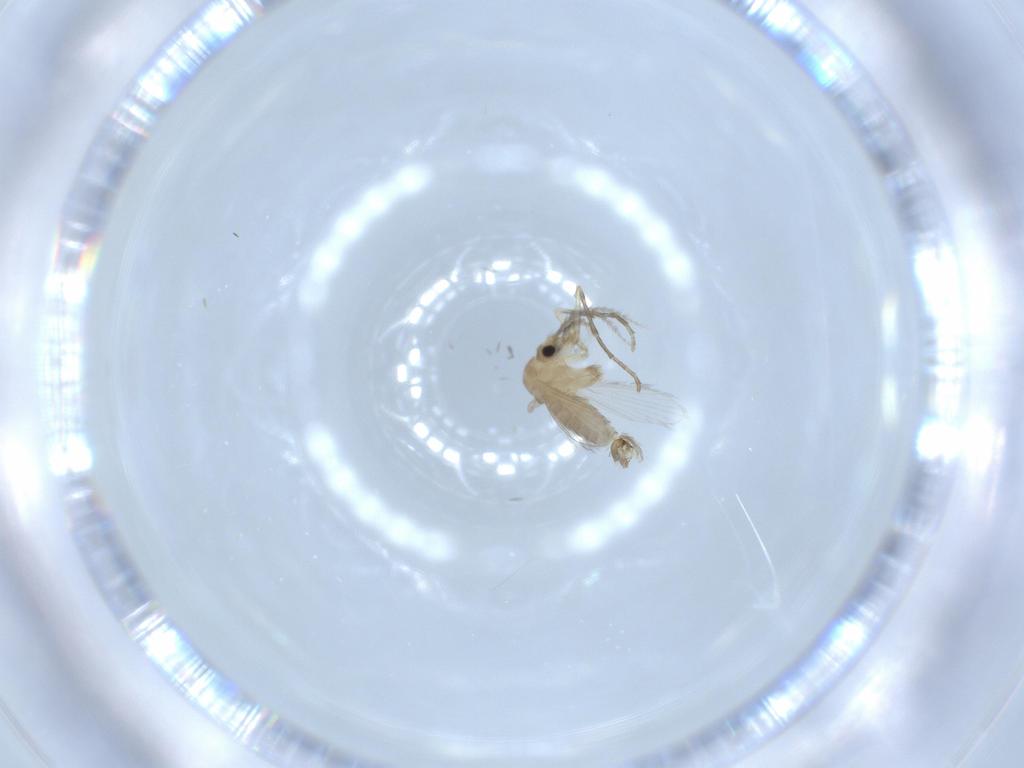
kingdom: Animalia
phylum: Arthropoda
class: Insecta
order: Diptera
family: Psychodidae
